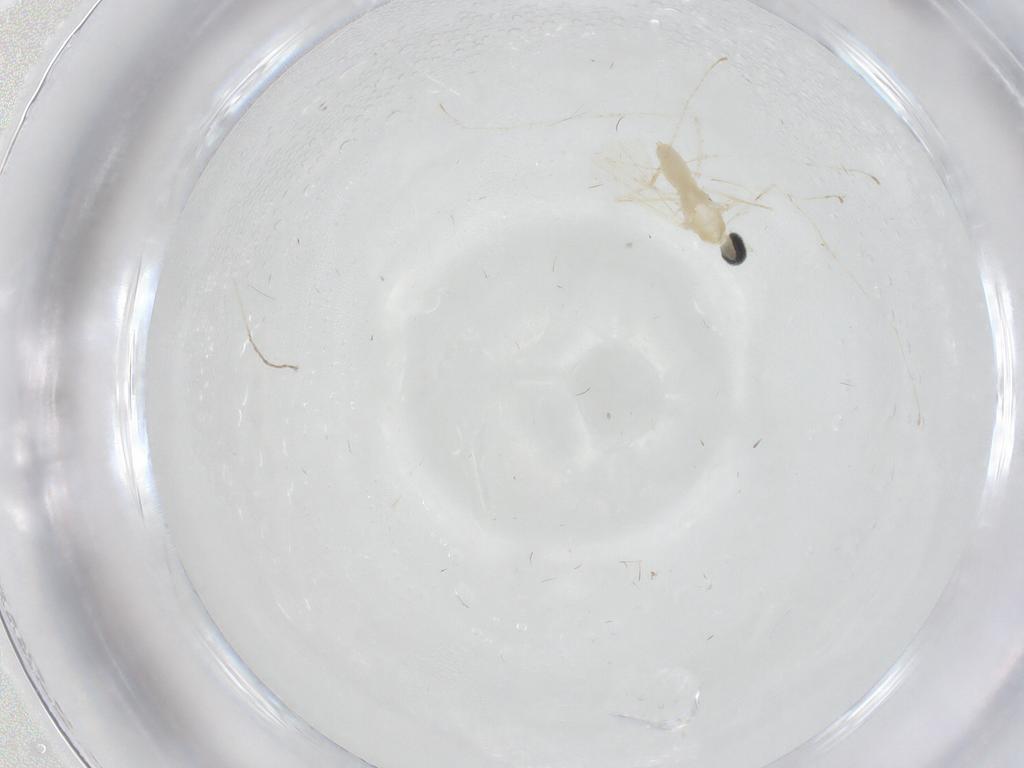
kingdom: Animalia
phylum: Arthropoda
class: Insecta
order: Diptera
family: Cecidomyiidae
